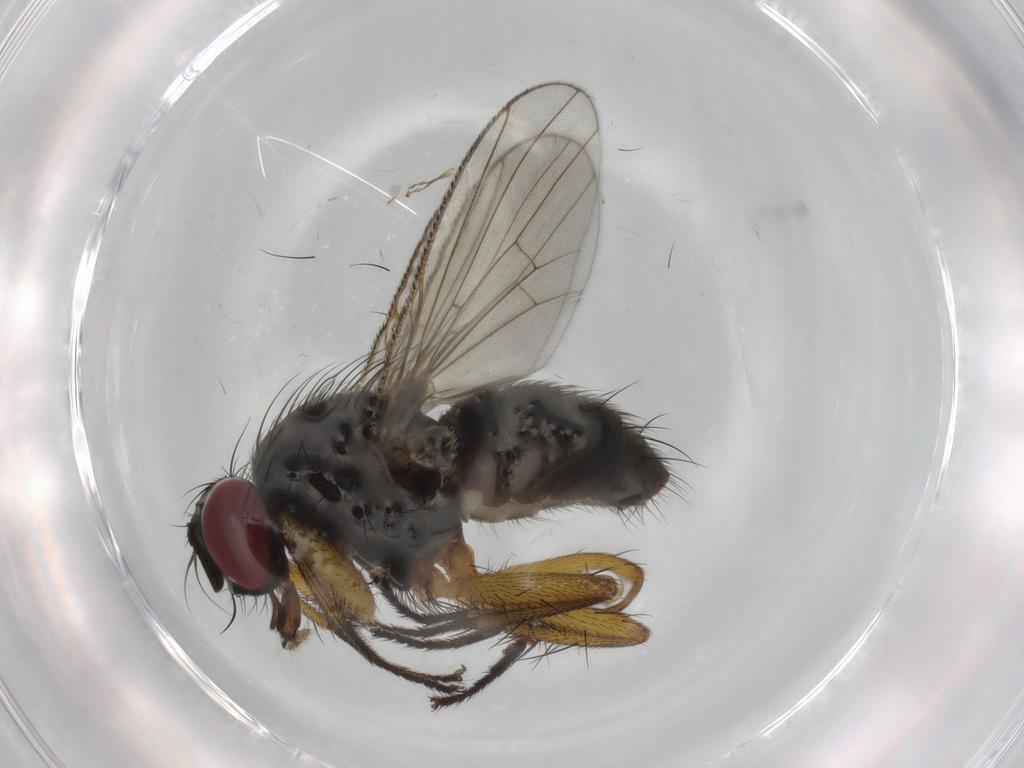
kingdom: Animalia
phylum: Arthropoda
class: Insecta
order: Diptera
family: Muscidae
